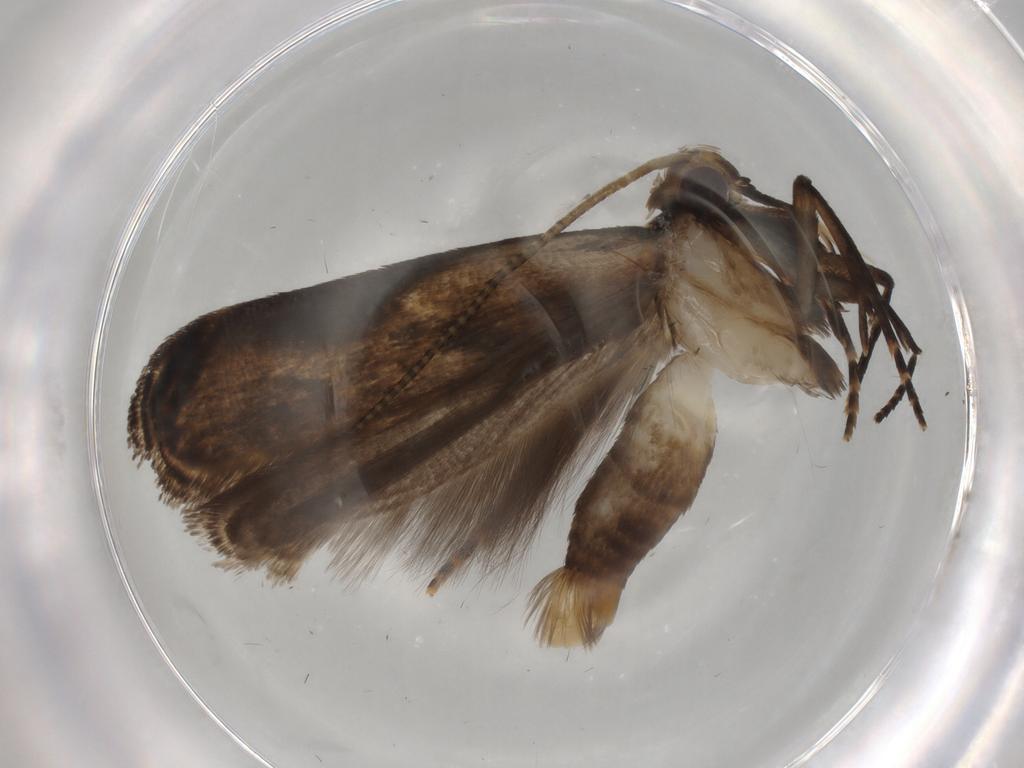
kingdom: Animalia
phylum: Arthropoda
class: Insecta
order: Lepidoptera
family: Gelechiidae
